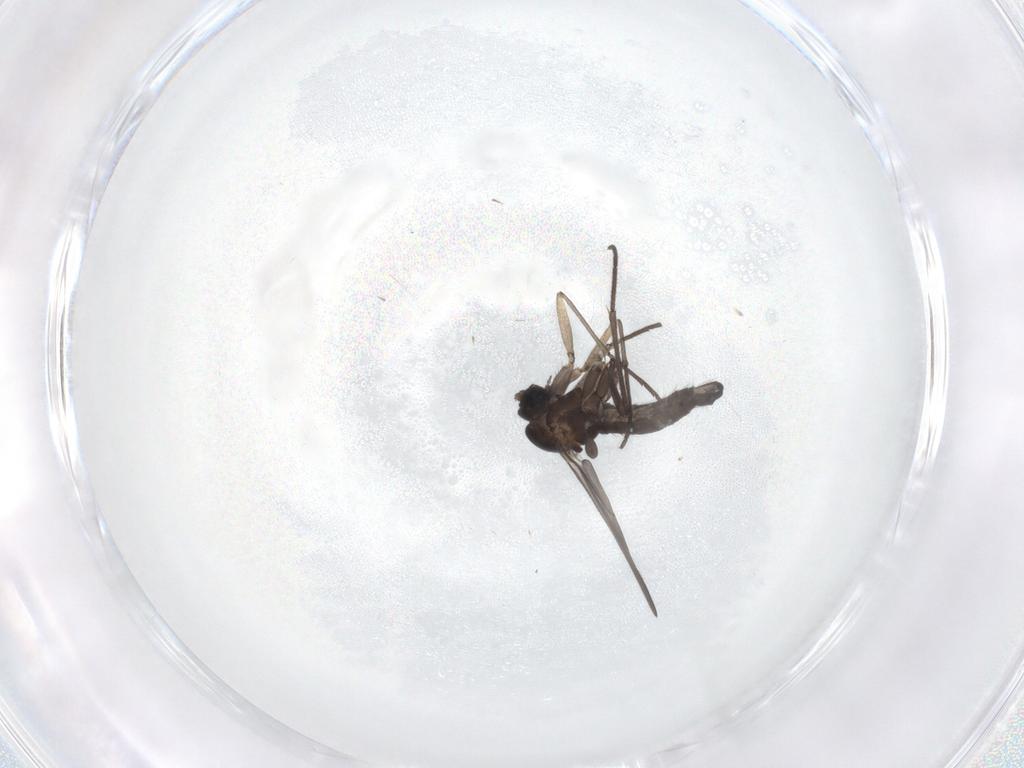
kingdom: Animalia
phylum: Arthropoda
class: Insecta
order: Diptera
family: Sciaridae
